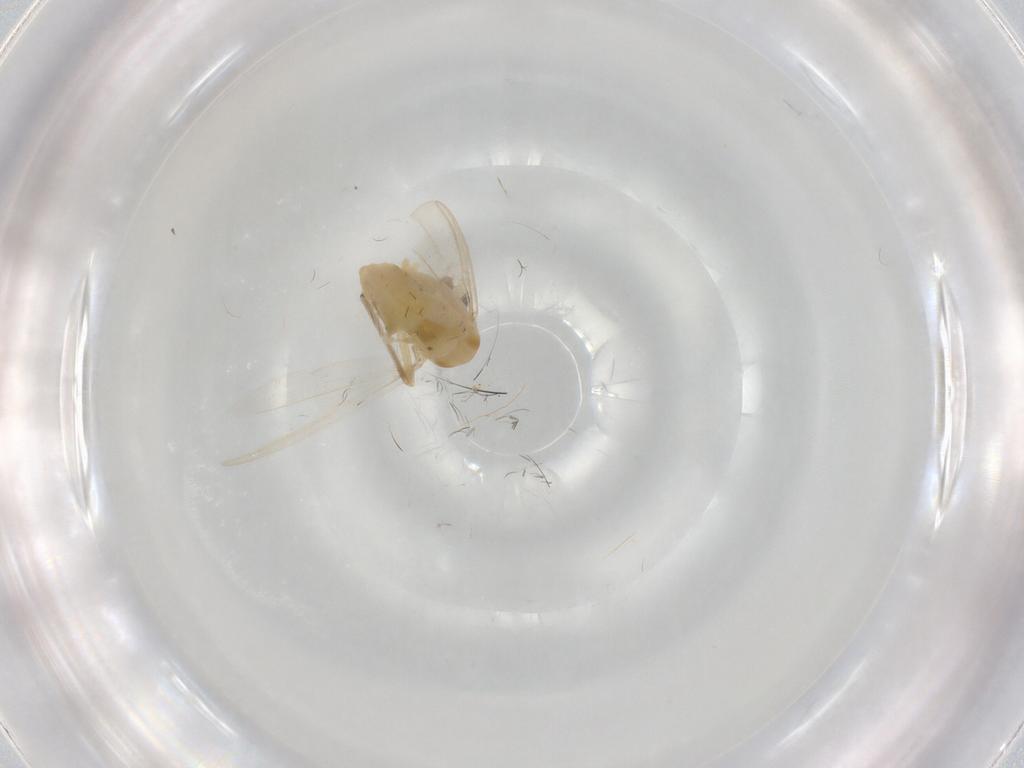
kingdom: Animalia
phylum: Arthropoda
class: Insecta
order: Diptera
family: Chironomidae
